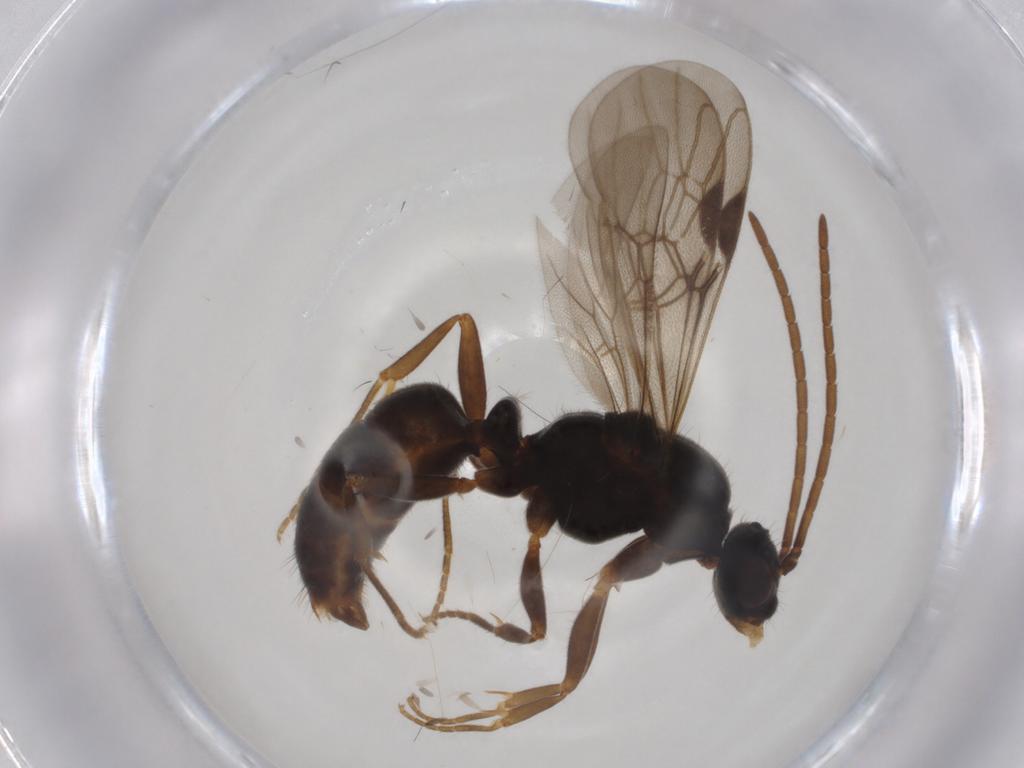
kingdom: Animalia
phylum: Arthropoda
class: Insecta
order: Hymenoptera
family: Formicidae
